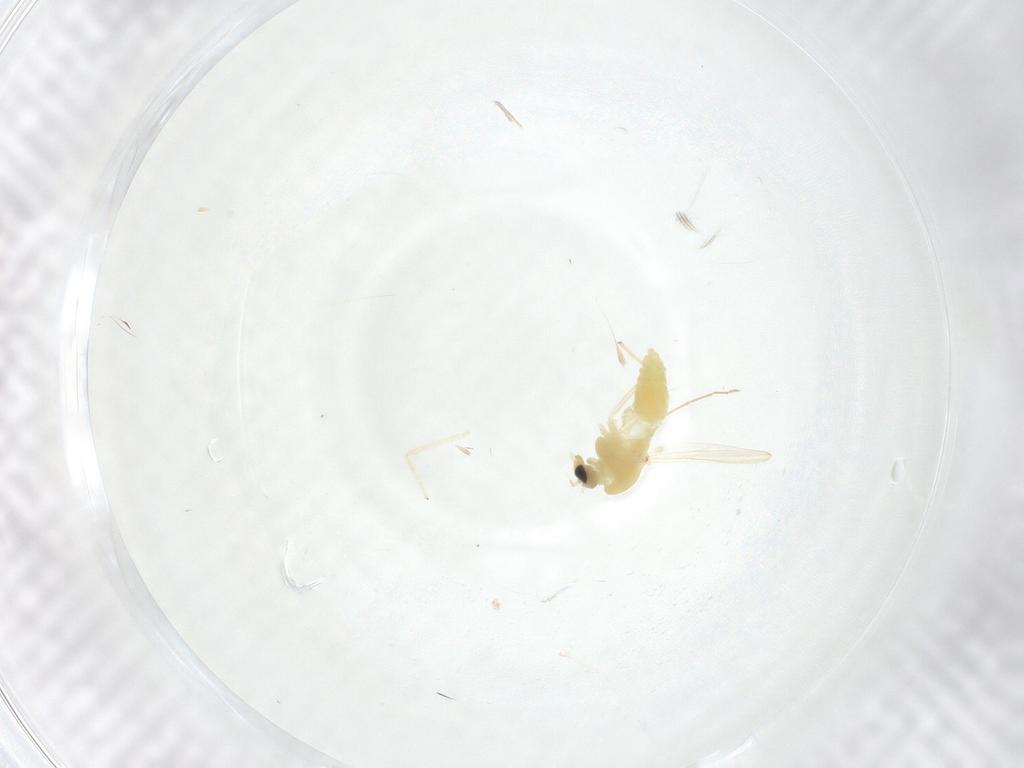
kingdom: Animalia
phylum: Arthropoda
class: Insecta
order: Diptera
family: Chironomidae
